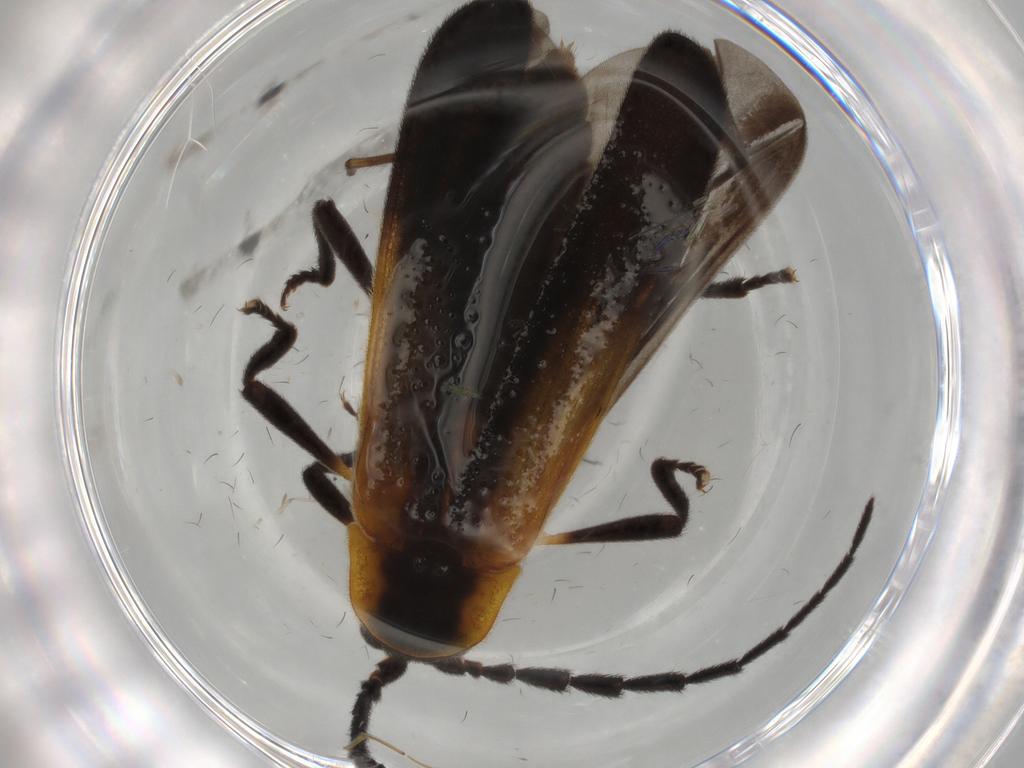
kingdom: Animalia
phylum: Arthropoda
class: Insecta
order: Coleoptera
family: Lycidae
